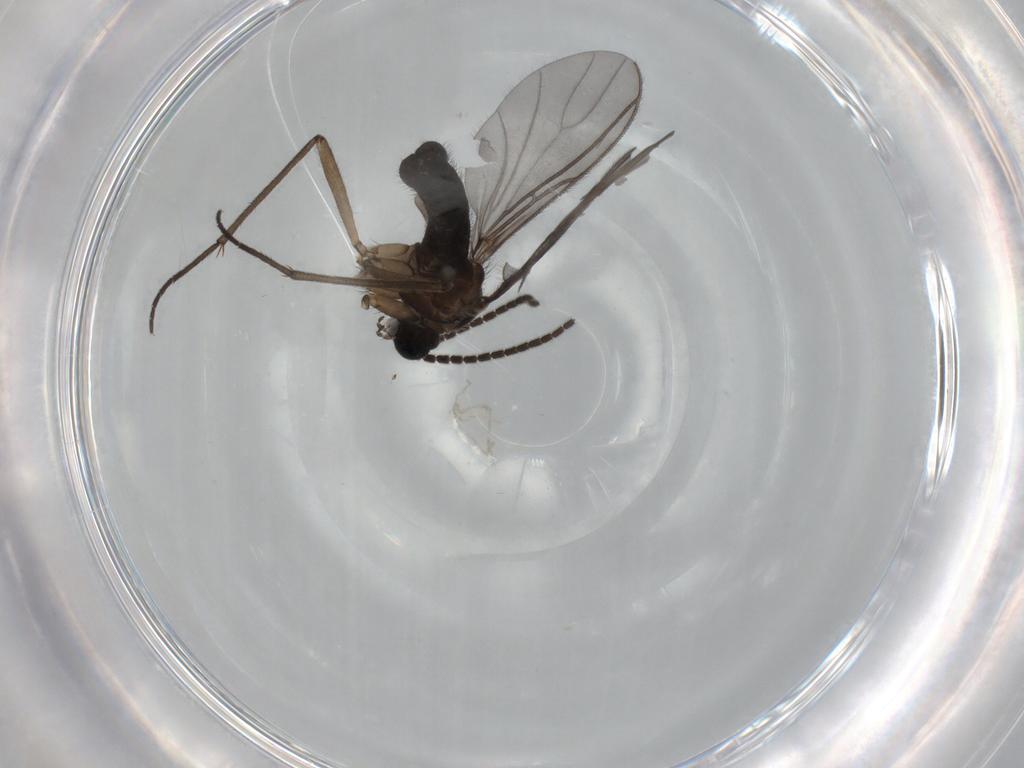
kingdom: Animalia
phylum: Arthropoda
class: Insecta
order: Diptera
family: Sciaridae
